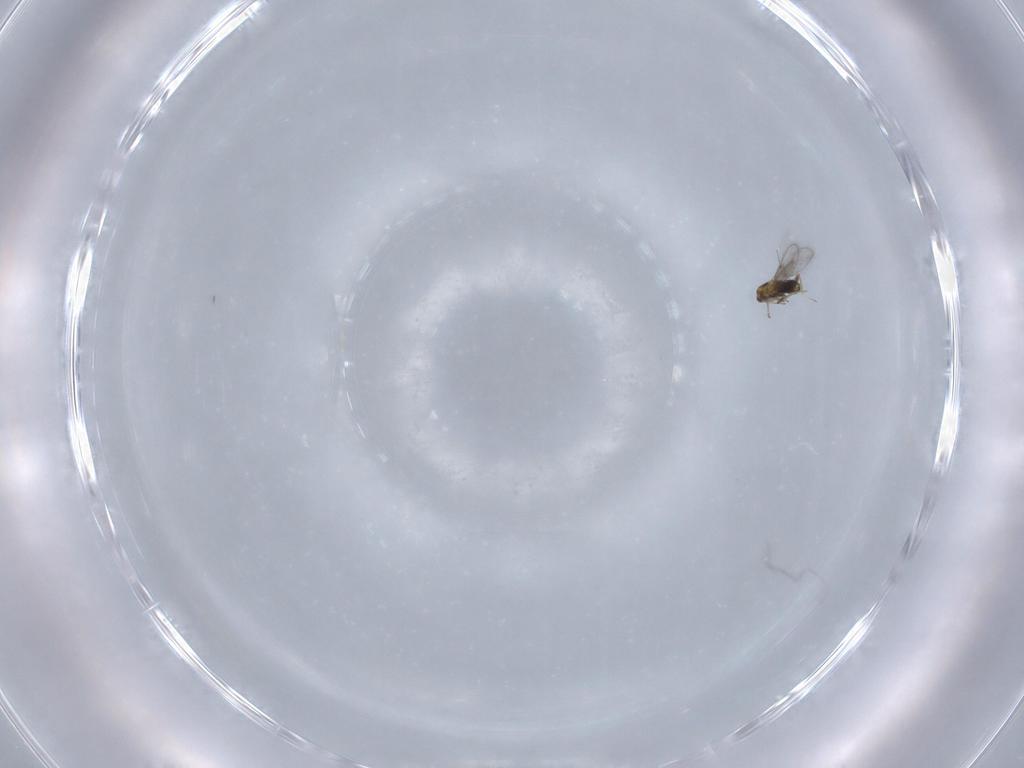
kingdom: Animalia
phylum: Arthropoda
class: Insecta
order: Hymenoptera
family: Aphelinidae
